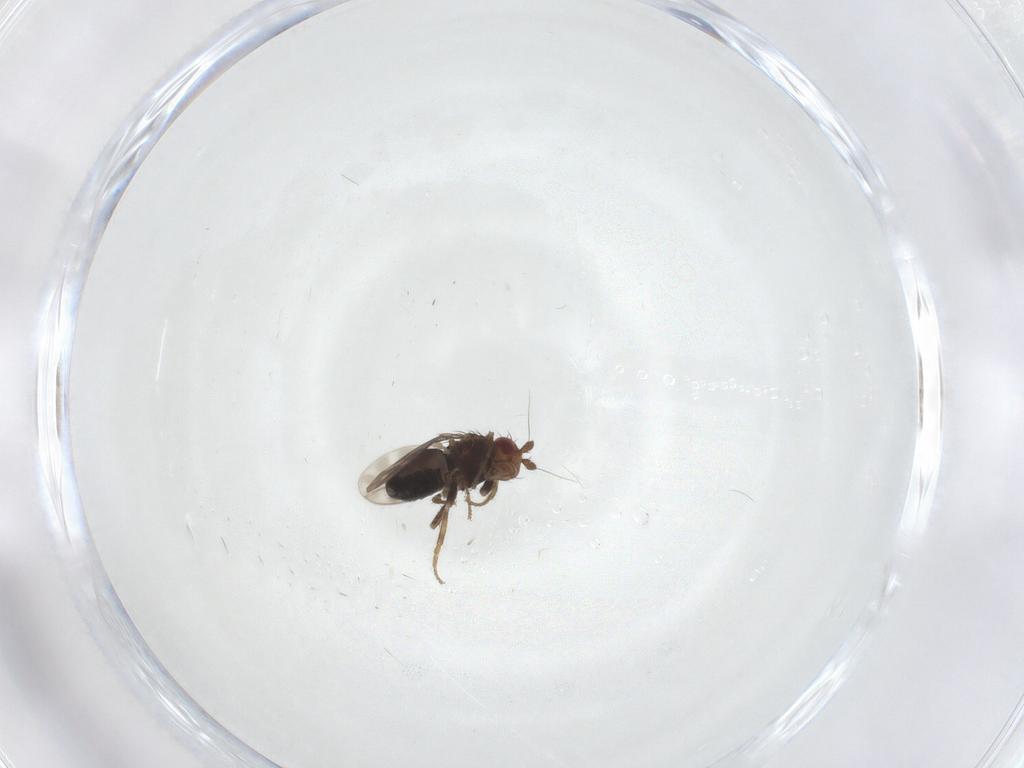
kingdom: Animalia
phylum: Arthropoda
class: Insecta
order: Diptera
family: Sphaeroceridae
